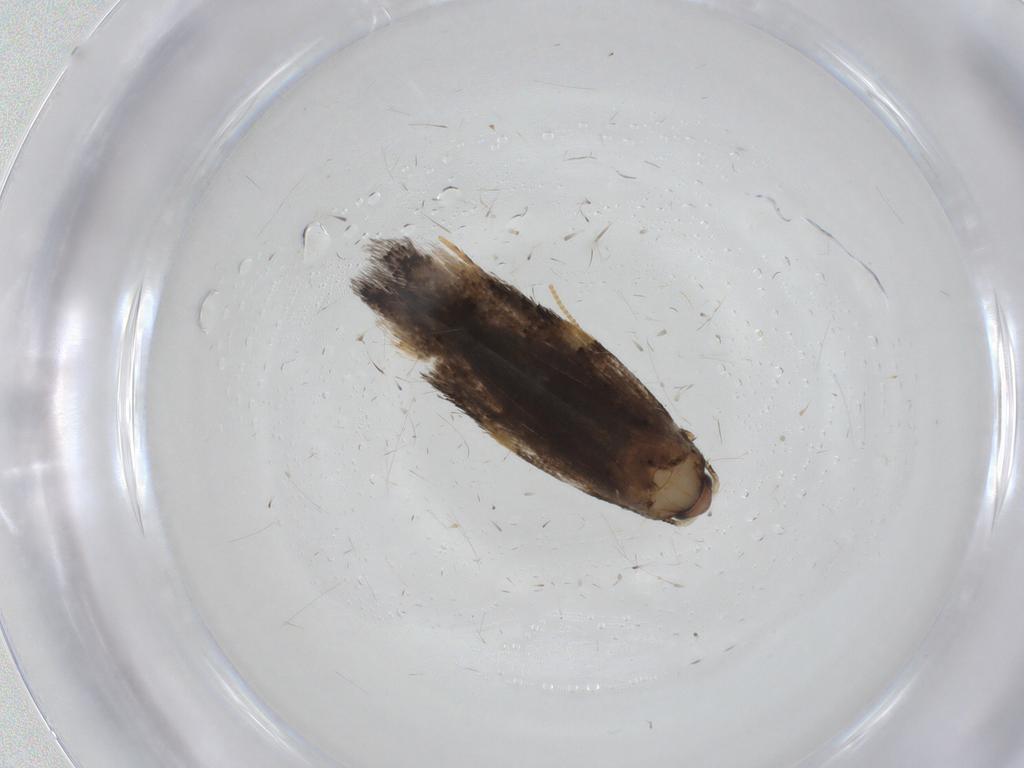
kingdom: Animalia
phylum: Arthropoda
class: Insecta
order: Lepidoptera
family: Tineidae
